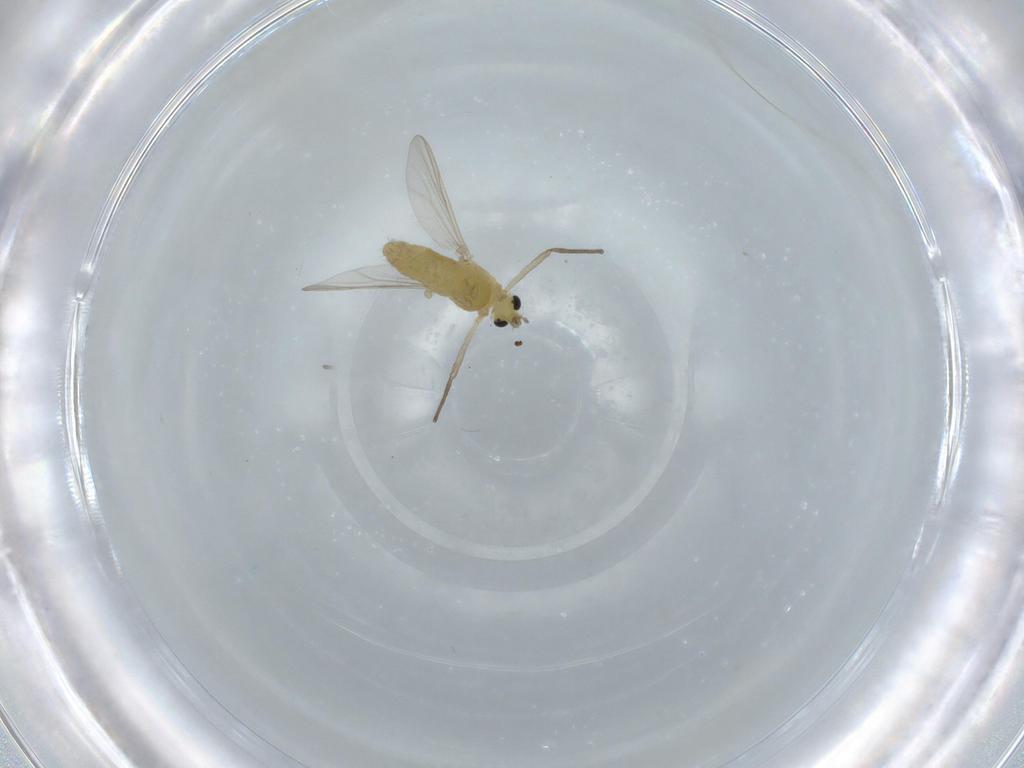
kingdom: Animalia
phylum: Arthropoda
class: Insecta
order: Diptera
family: Chironomidae
